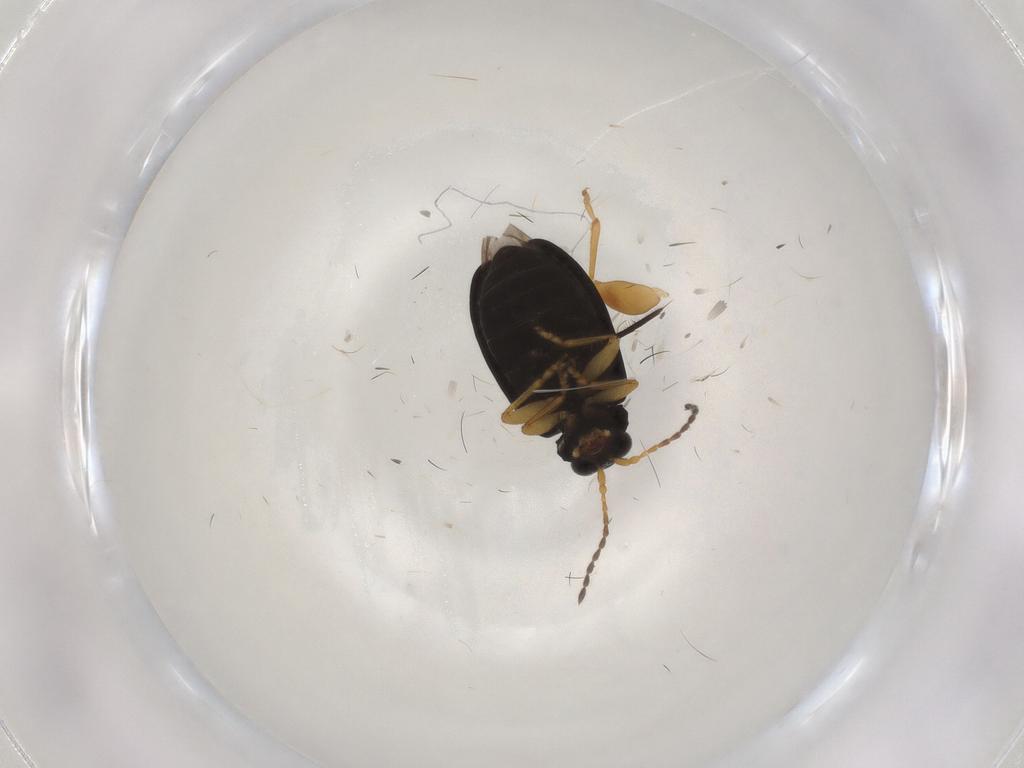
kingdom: Animalia
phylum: Arthropoda
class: Insecta
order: Coleoptera
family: Chrysomelidae
